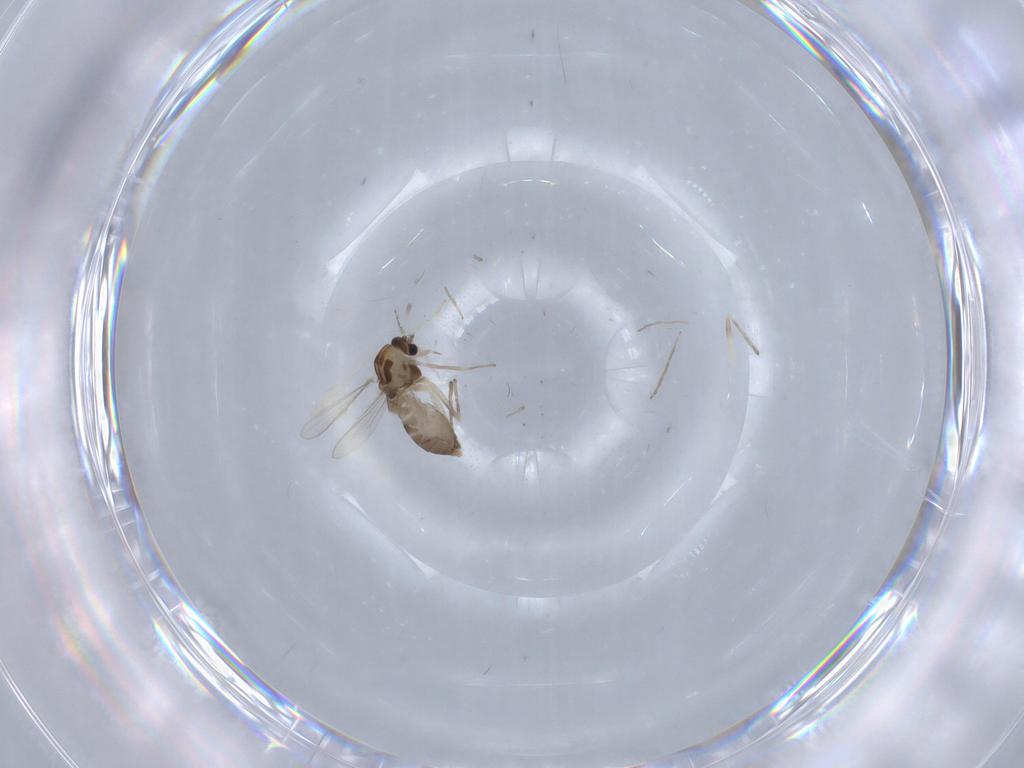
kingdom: Animalia
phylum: Arthropoda
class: Insecta
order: Diptera
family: Chironomidae
